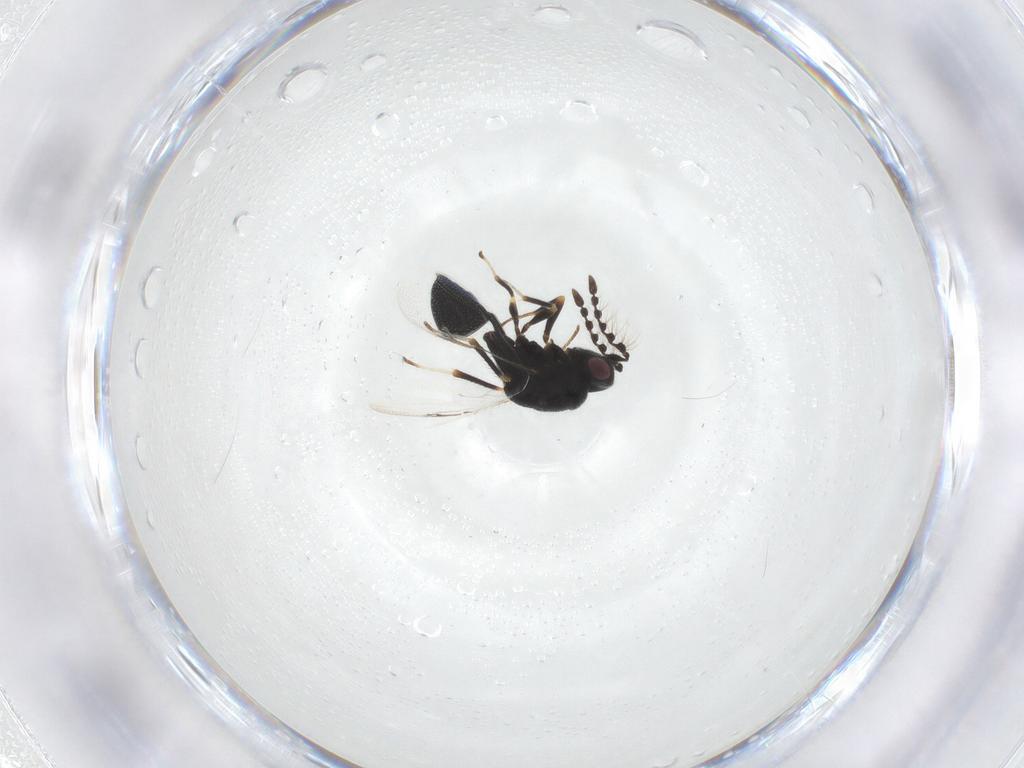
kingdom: Animalia
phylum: Arthropoda
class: Insecta
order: Hymenoptera
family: Eurytomidae
